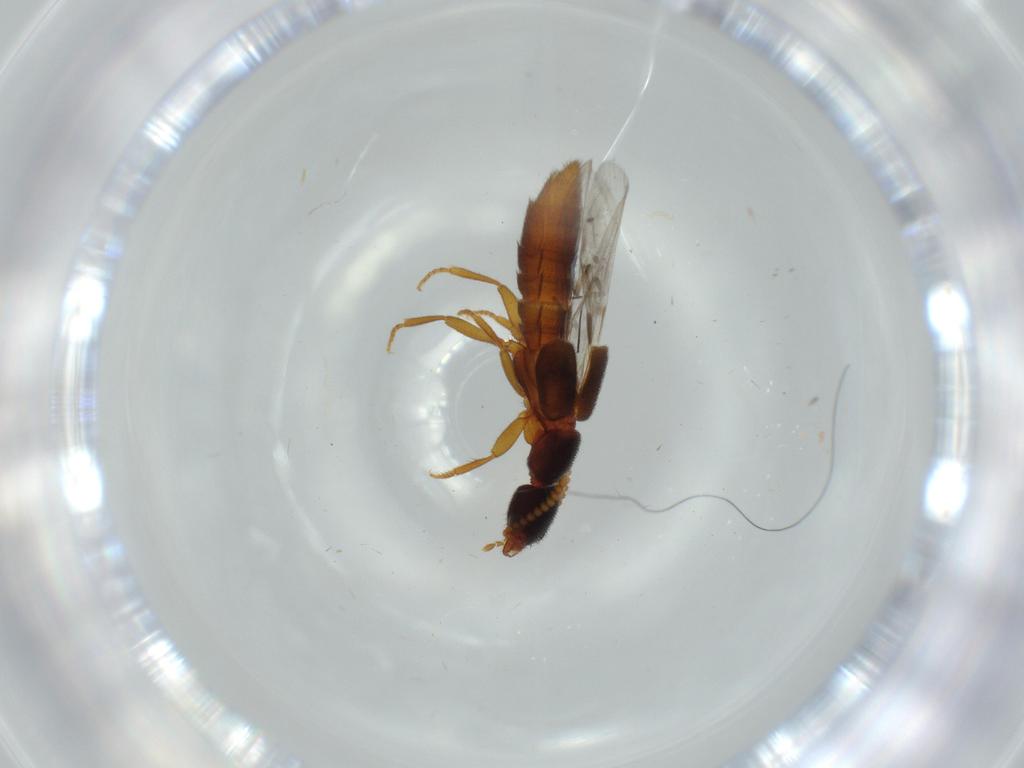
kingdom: Animalia
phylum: Arthropoda
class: Insecta
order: Coleoptera
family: Staphylinidae
